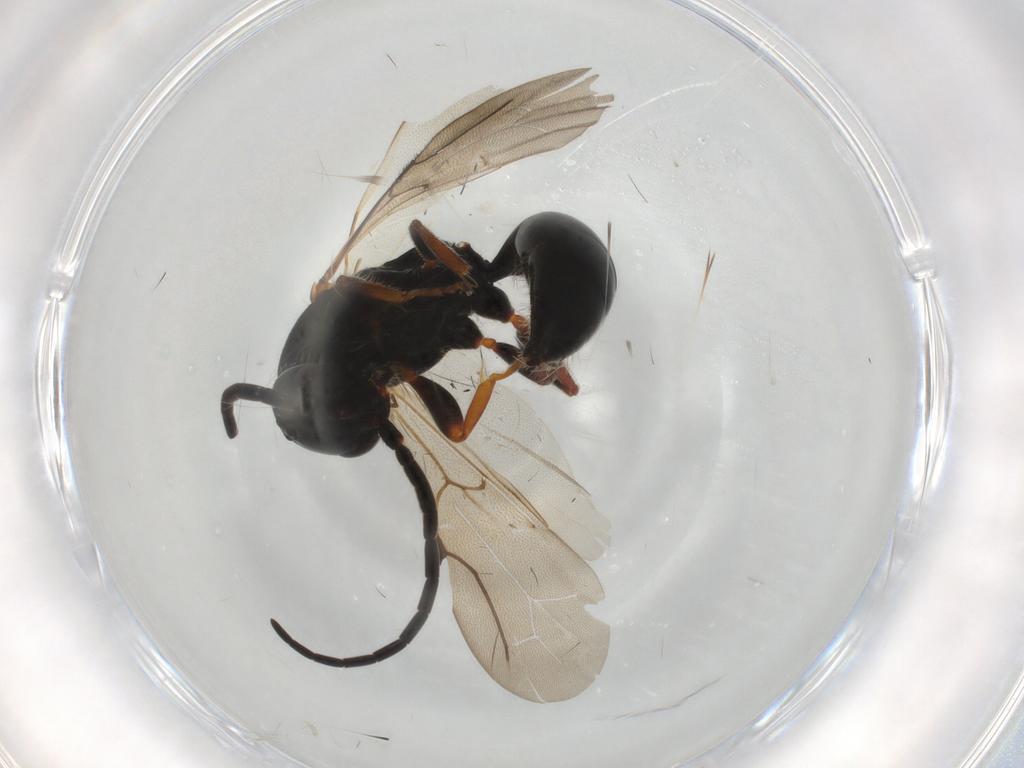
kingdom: Animalia
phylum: Arthropoda
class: Insecta
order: Hymenoptera
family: Bethylidae
